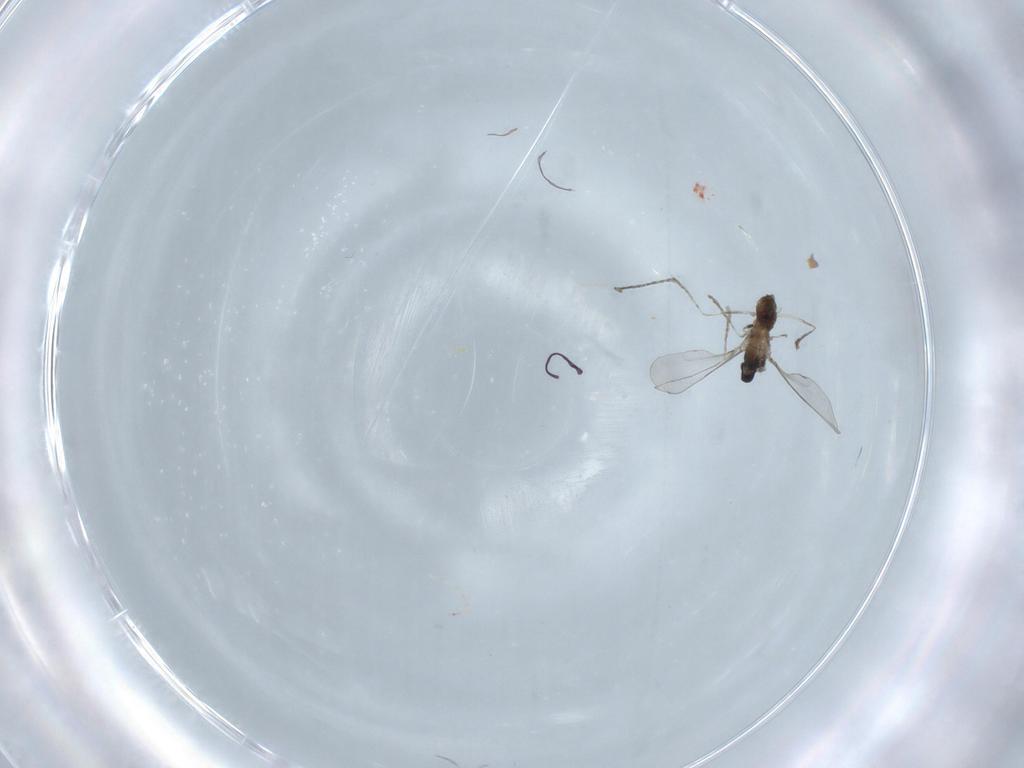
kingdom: Animalia
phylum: Arthropoda
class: Insecta
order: Diptera
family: Cecidomyiidae
